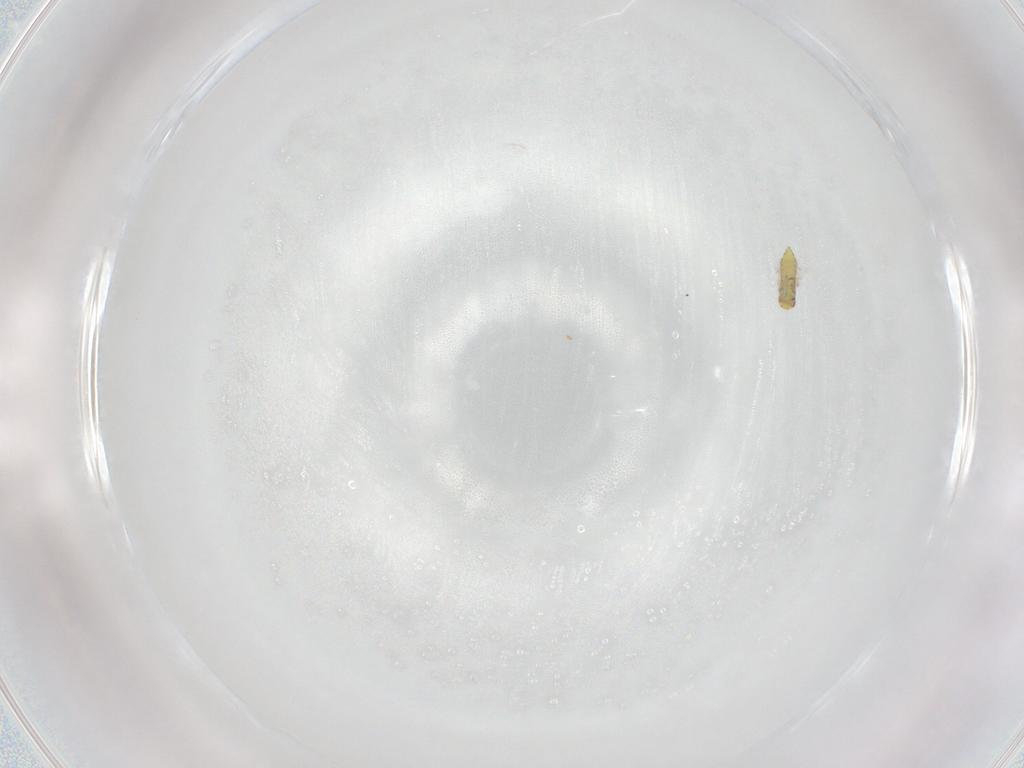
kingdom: Animalia
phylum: Arthropoda
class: Insecta
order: Hymenoptera
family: Trichogrammatidae
